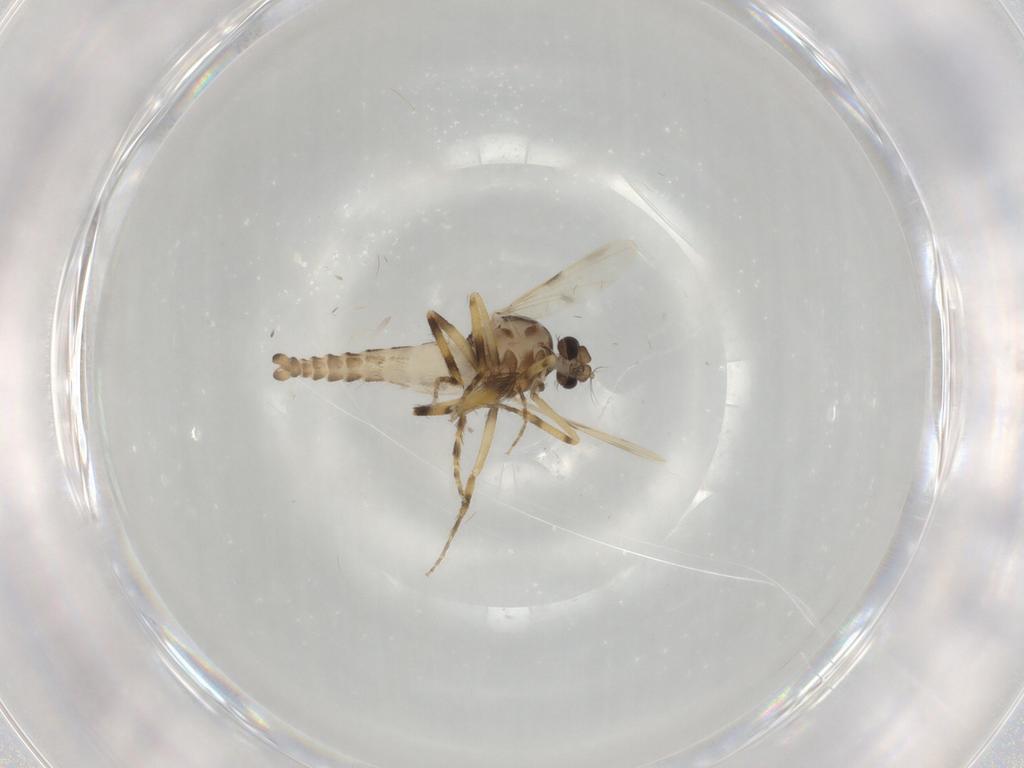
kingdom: Animalia
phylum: Arthropoda
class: Insecta
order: Diptera
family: Ceratopogonidae
